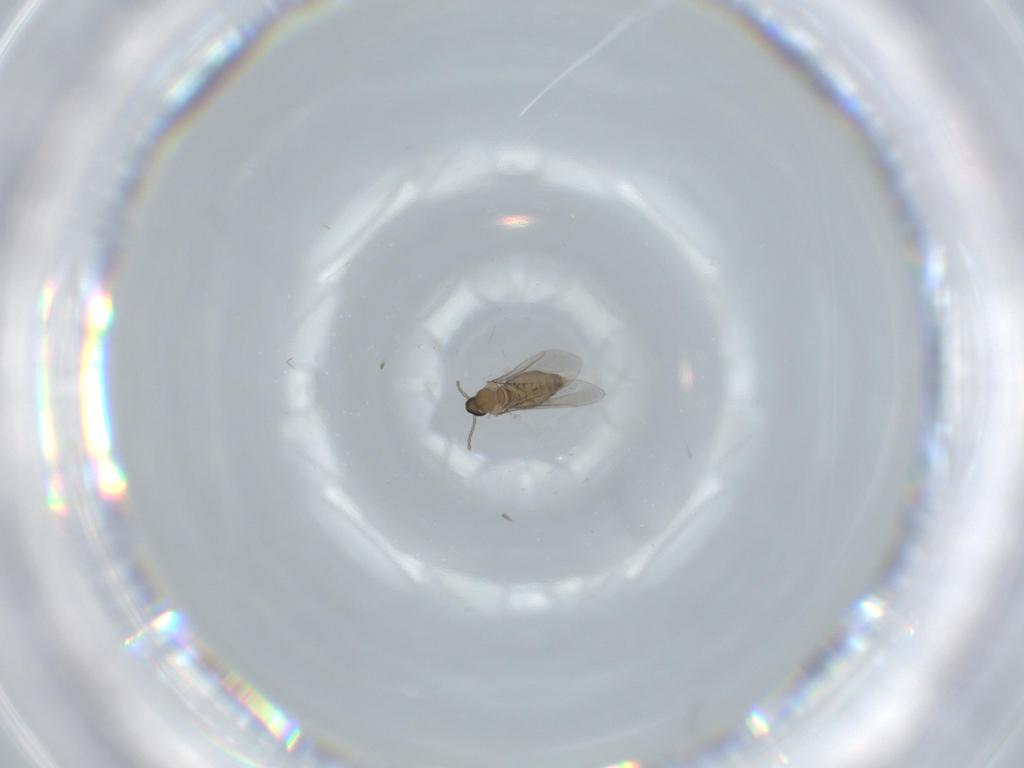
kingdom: Animalia
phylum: Arthropoda
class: Insecta
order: Diptera
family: Cecidomyiidae
